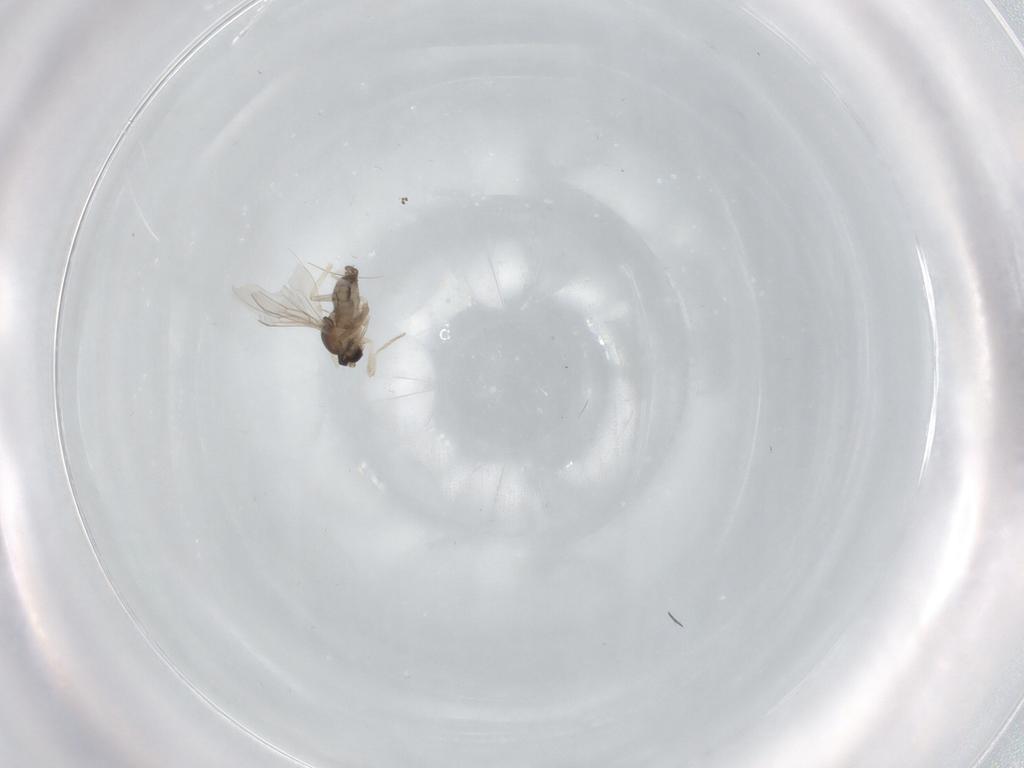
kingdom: Animalia
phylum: Arthropoda
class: Insecta
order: Diptera
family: Cecidomyiidae
